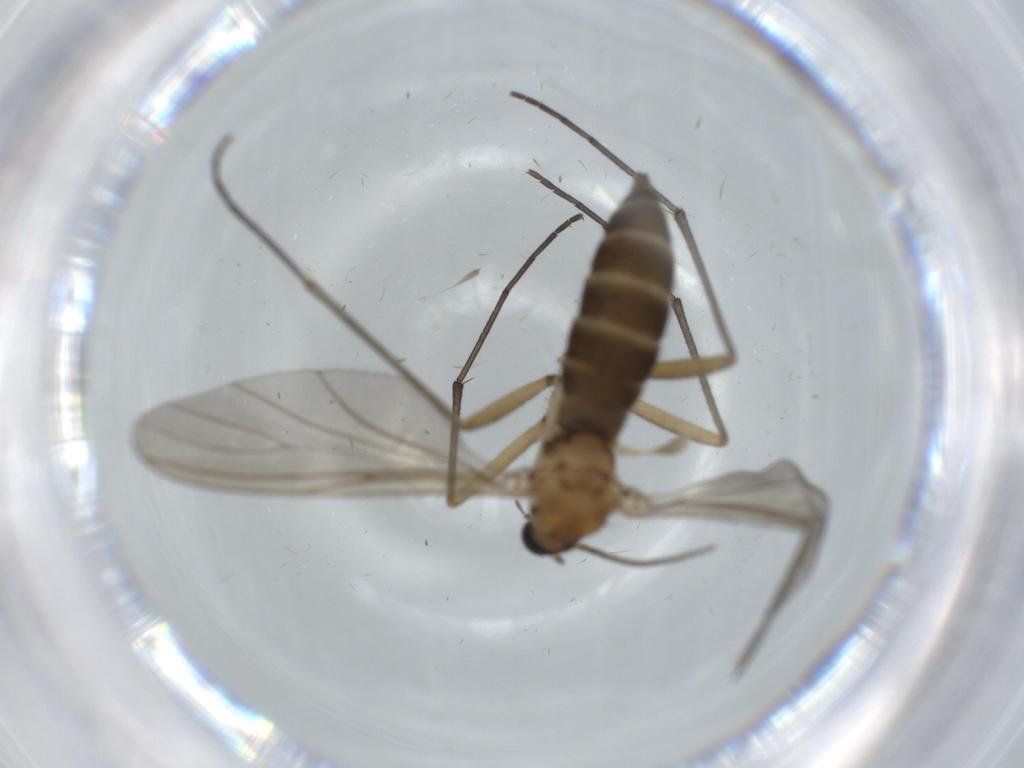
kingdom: Animalia
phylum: Arthropoda
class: Insecta
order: Diptera
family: Sciaridae
